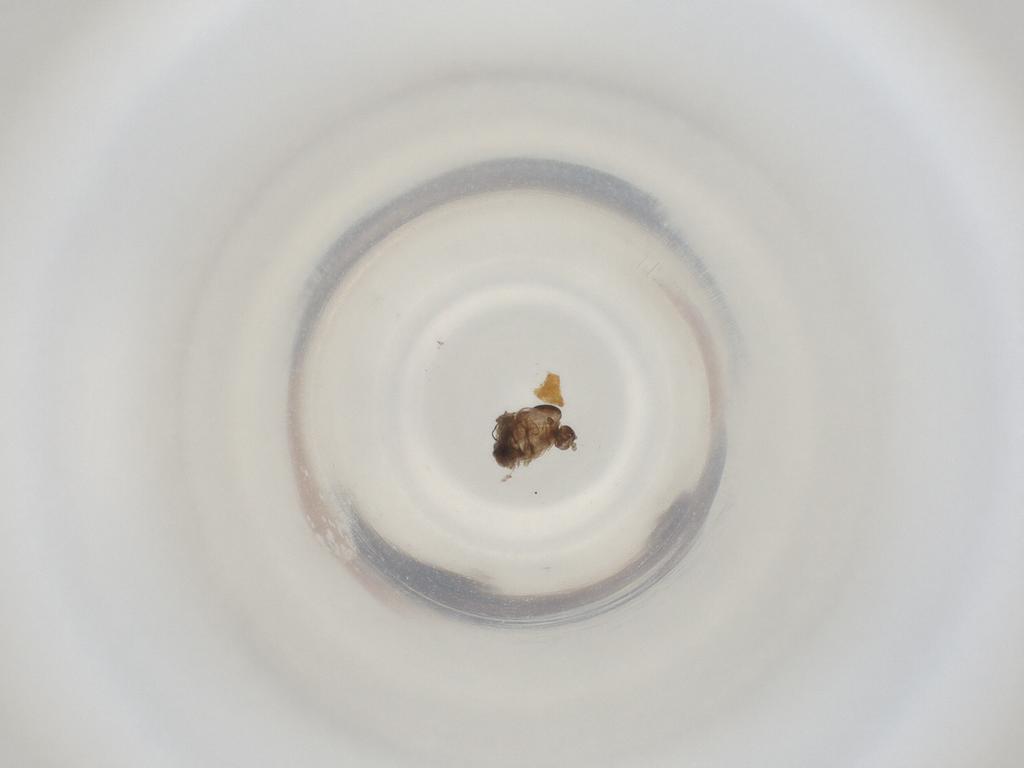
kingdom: Animalia
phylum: Arthropoda
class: Insecta
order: Diptera
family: Cecidomyiidae
